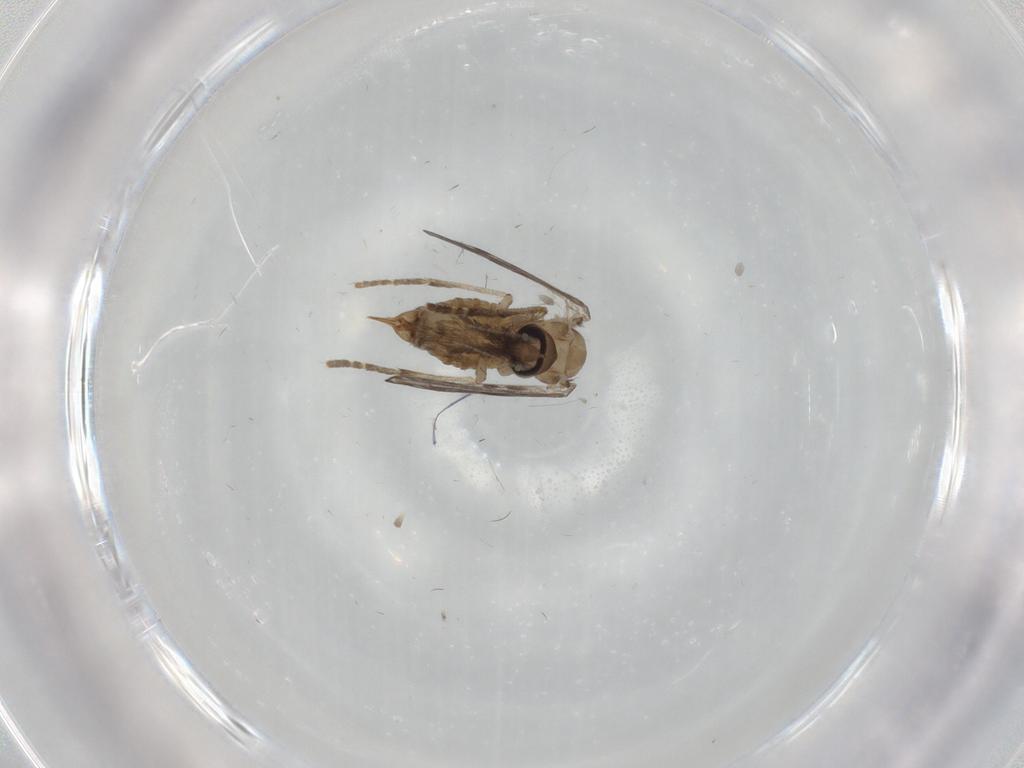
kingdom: Animalia
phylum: Arthropoda
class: Insecta
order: Diptera
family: Psychodidae
